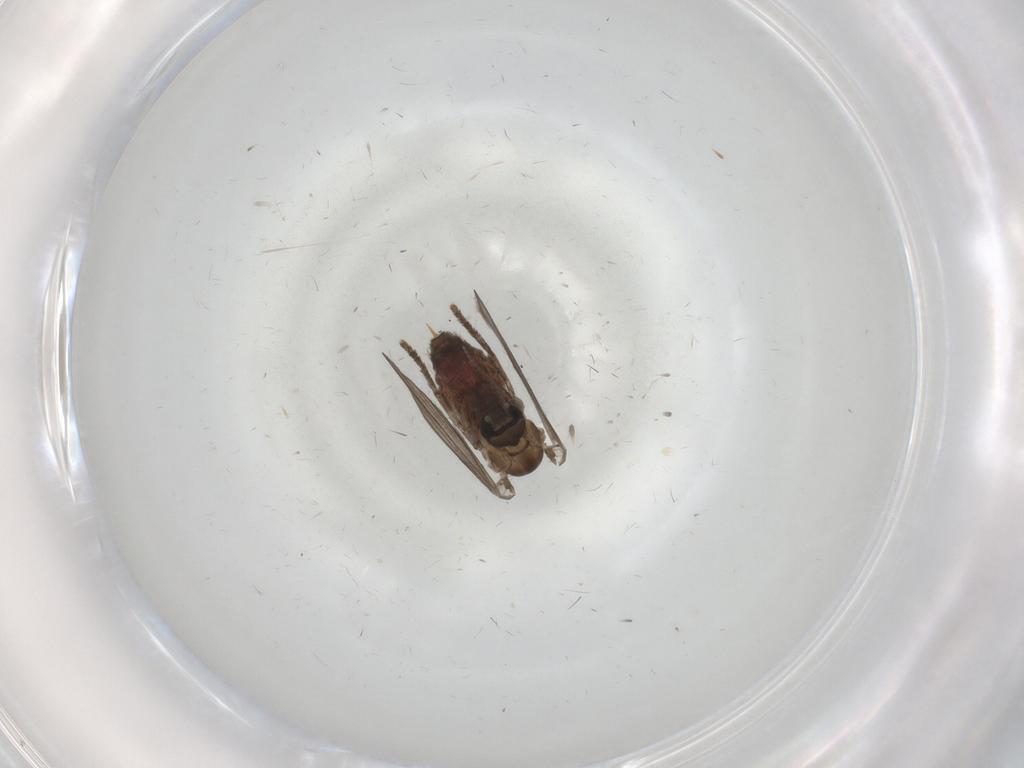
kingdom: Animalia
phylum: Arthropoda
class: Insecta
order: Diptera
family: Psychodidae
